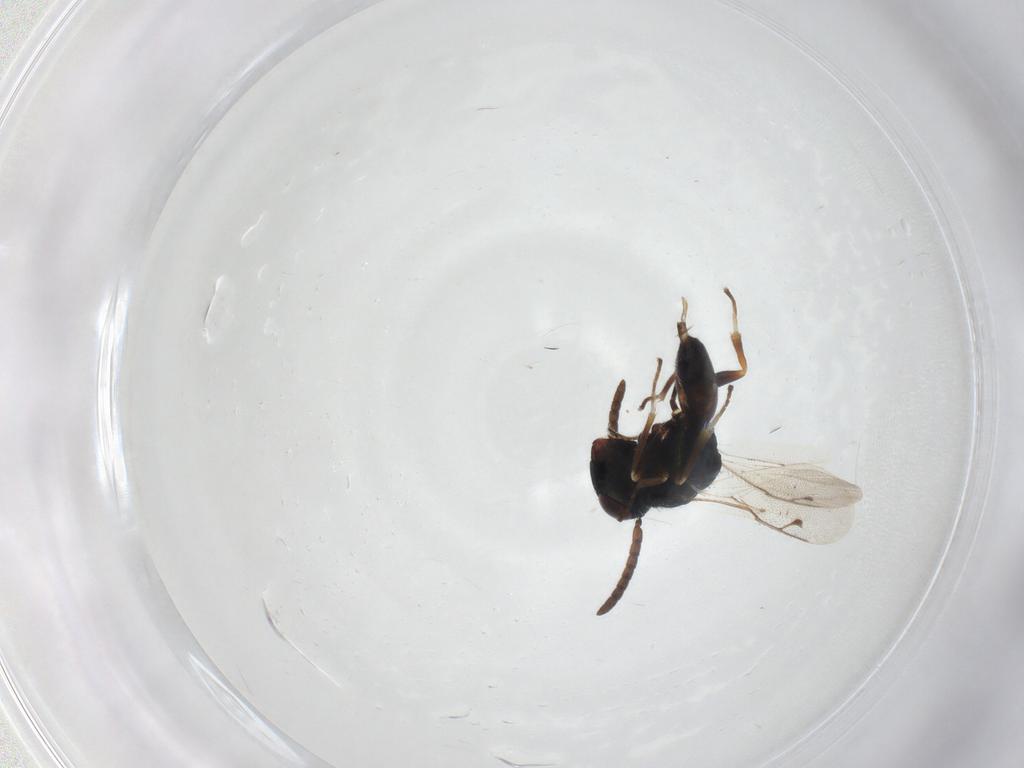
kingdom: Animalia
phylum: Arthropoda
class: Insecta
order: Hymenoptera
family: Pteromalidae
